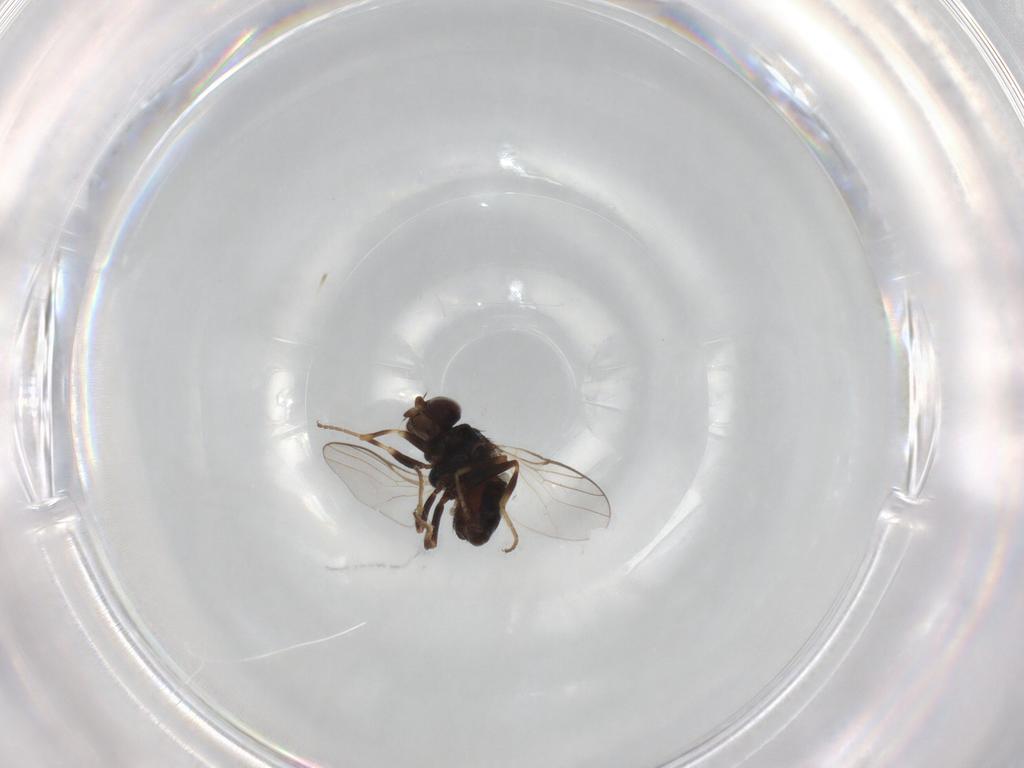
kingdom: Animalia
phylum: Arthropoda
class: Insecta
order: Diptera
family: Chloropidae
